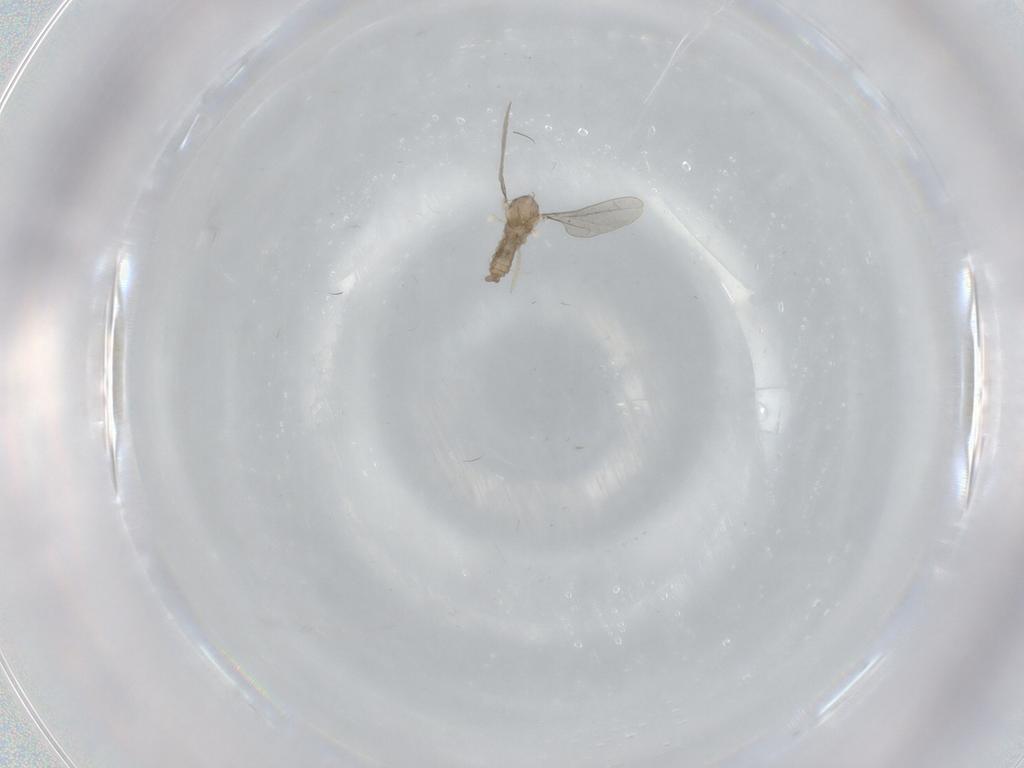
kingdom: Animalia
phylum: Arthropoda
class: Insecta
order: Diptera
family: Psychodidae
